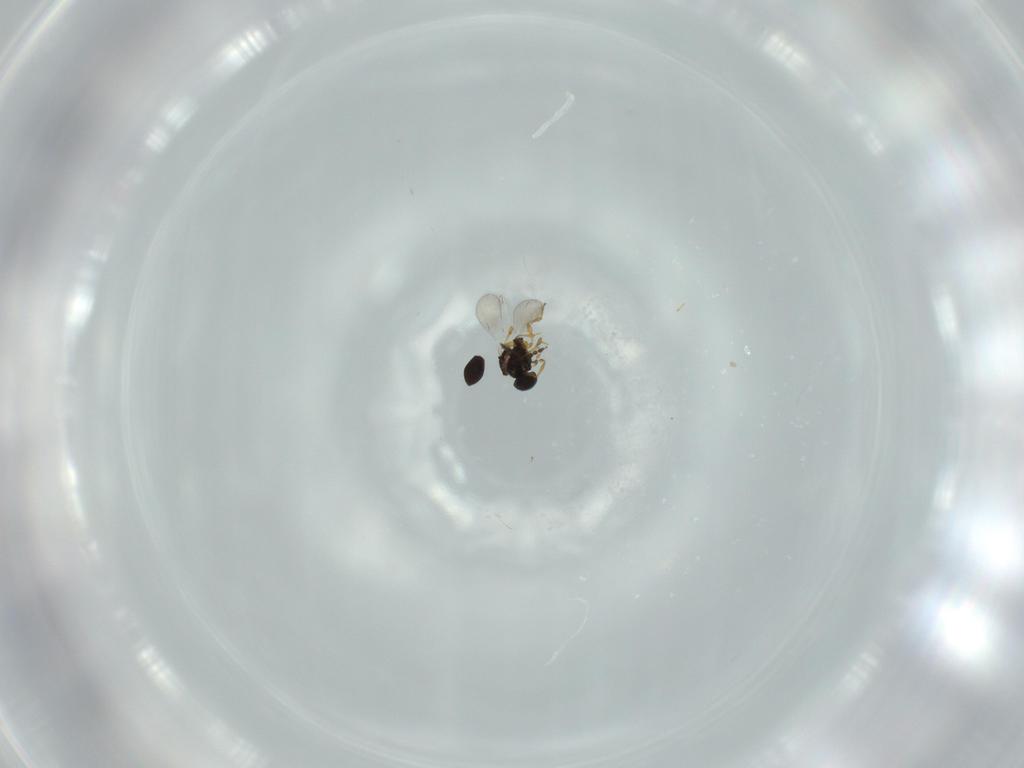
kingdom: Animalia
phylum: Arthropoda
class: Insecta
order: Hymenoptera
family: Platygastridae
